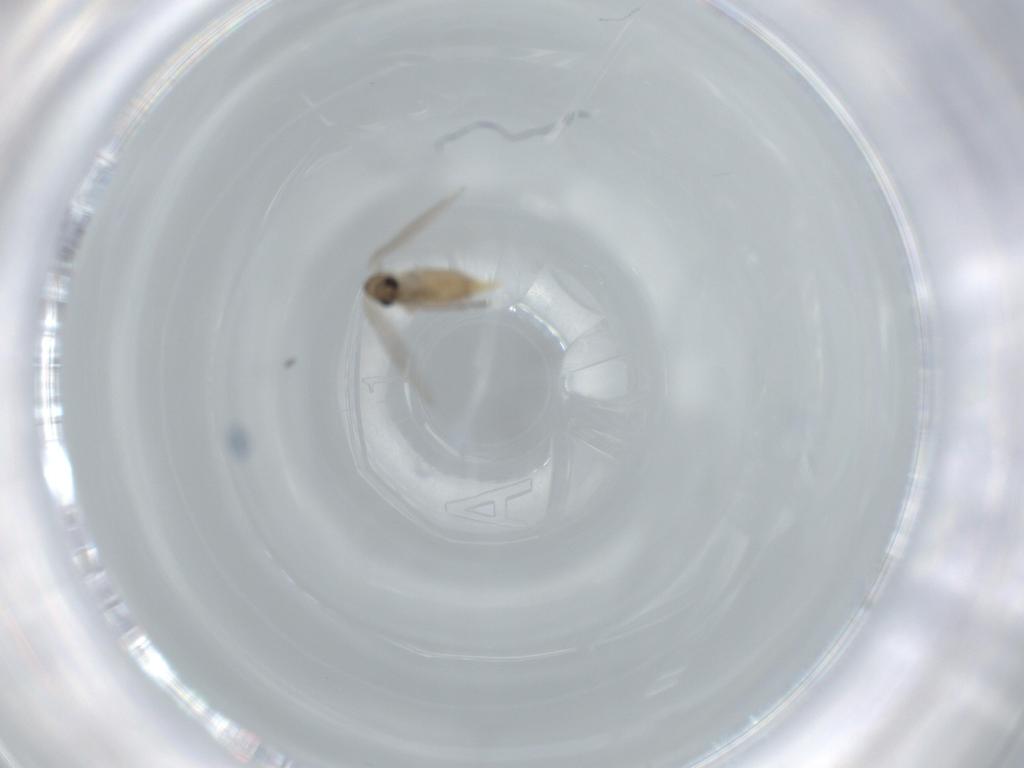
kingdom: Animalia
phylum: Arthropoda
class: Insecta
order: Diptera
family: Psychodidae
